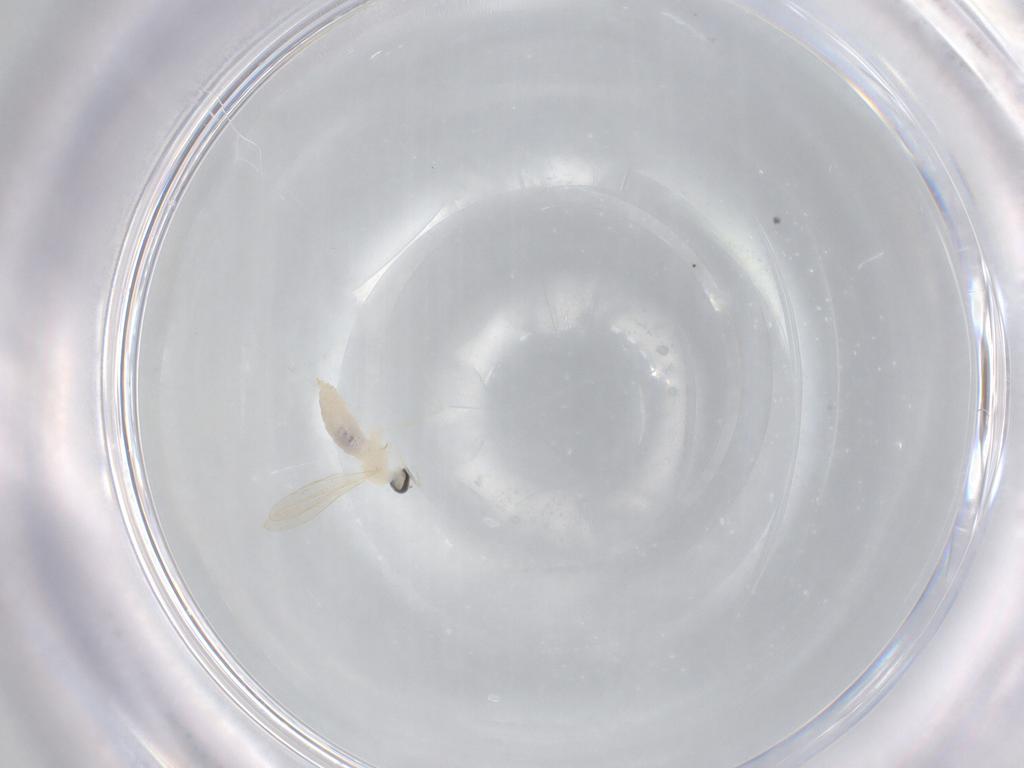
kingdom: Animalia
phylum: Arthropoda
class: Insecta
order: Diptera
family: Cecidomyiidae
